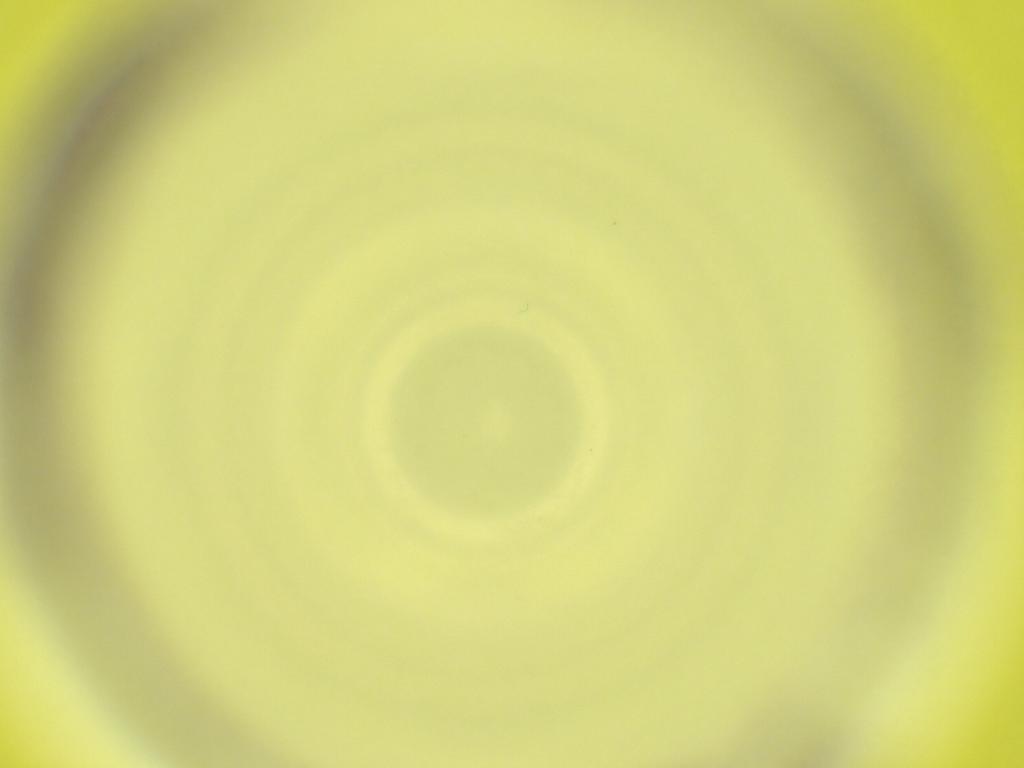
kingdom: Animalia
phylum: Arthropoda
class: Insecta
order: Diptera
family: Cecidomyiidae
